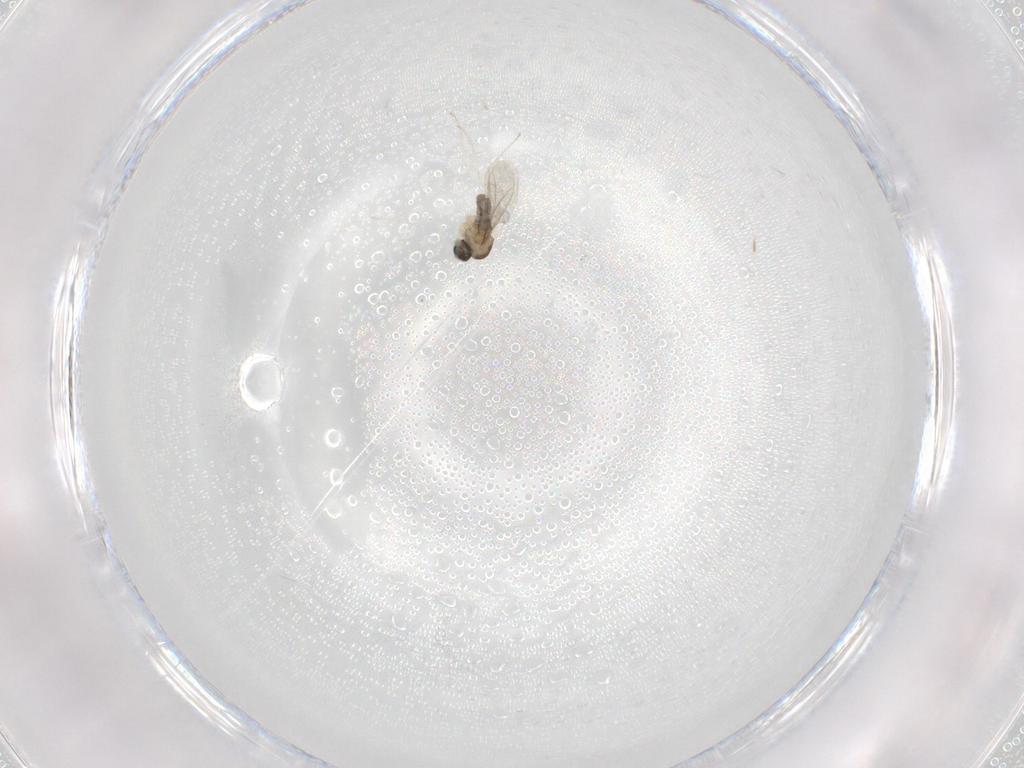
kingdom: Animalia
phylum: Arthropoda
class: Insecta
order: Diptera
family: Cecidomyiidae
